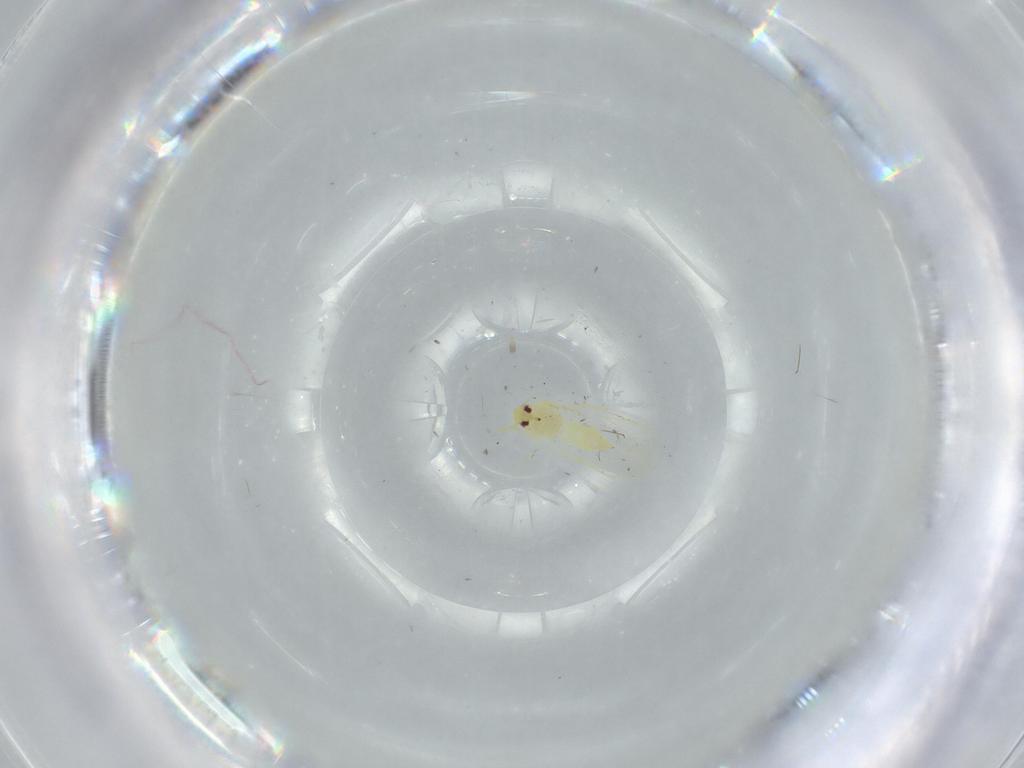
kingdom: Animalia
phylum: Arthropoda
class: Insecta
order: Hemiptera
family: Aleyrodidae
